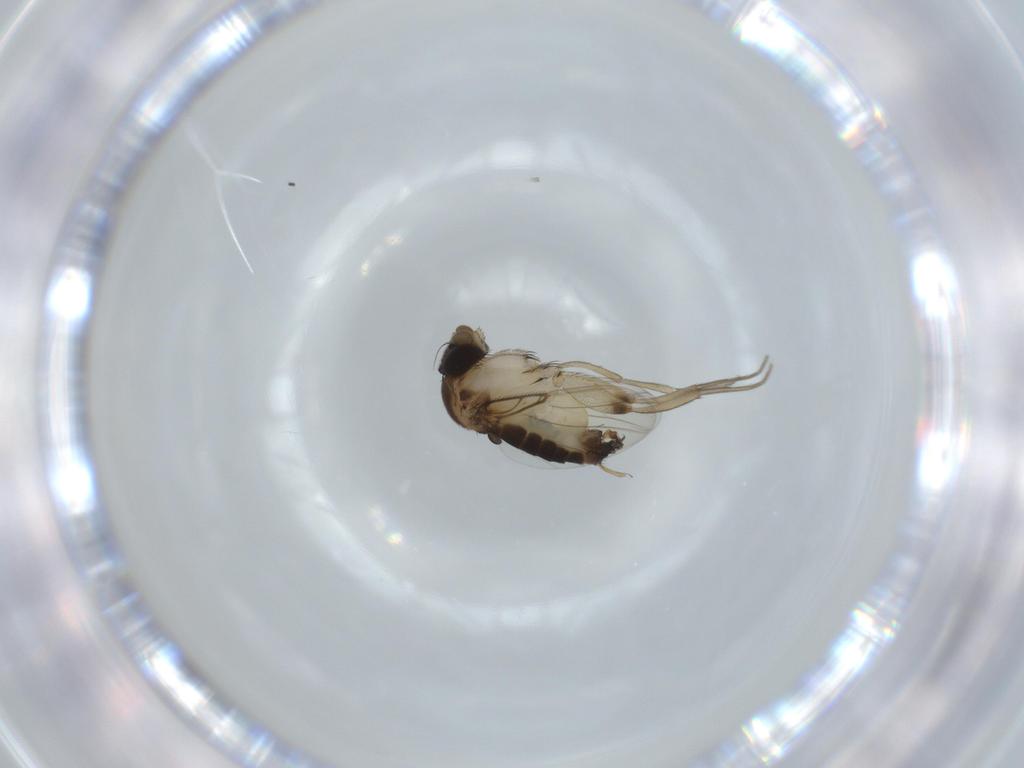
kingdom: Animalia
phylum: Arthropoda
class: Insecta
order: Diptera
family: Phoridae
